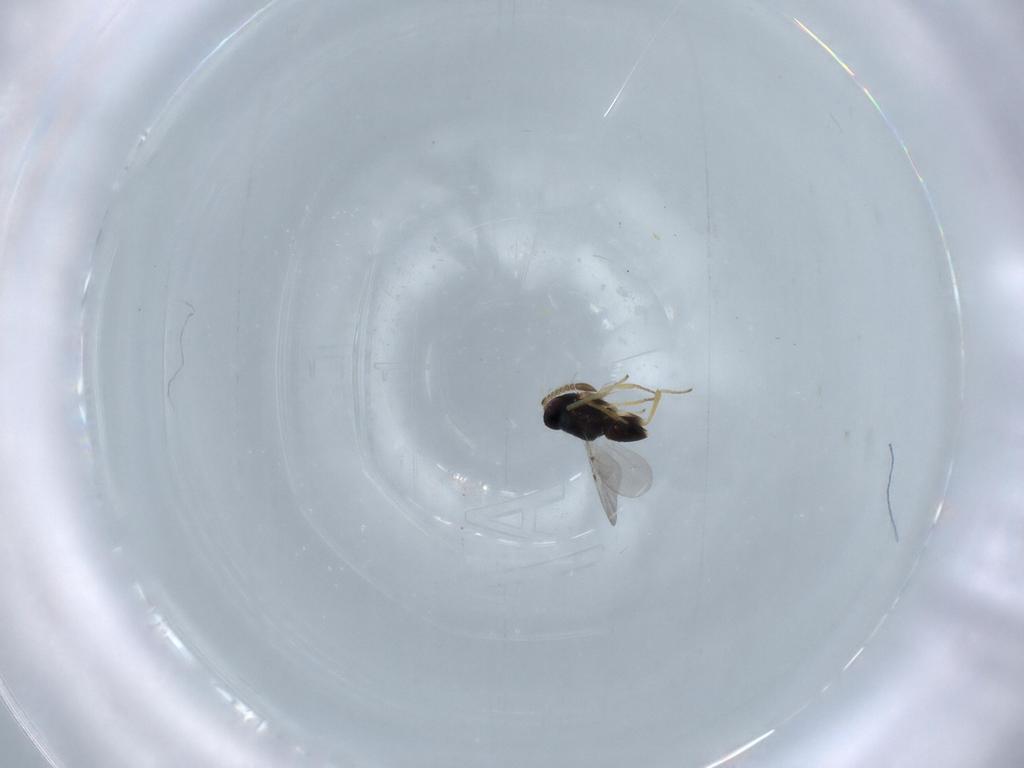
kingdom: Animalia
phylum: Arthropoda
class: Insecta
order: Hymenoptera
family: Encyrtidae
